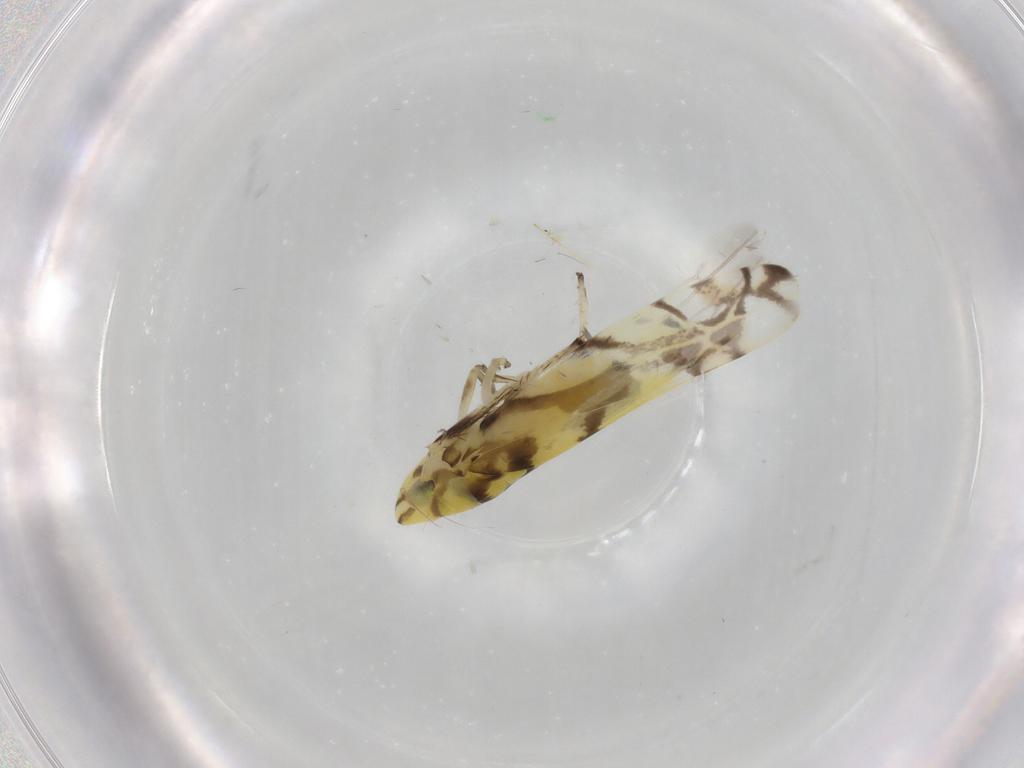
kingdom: Animalia
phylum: Arthropoda
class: Insecta
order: Hemiptera
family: Cicadellidae
